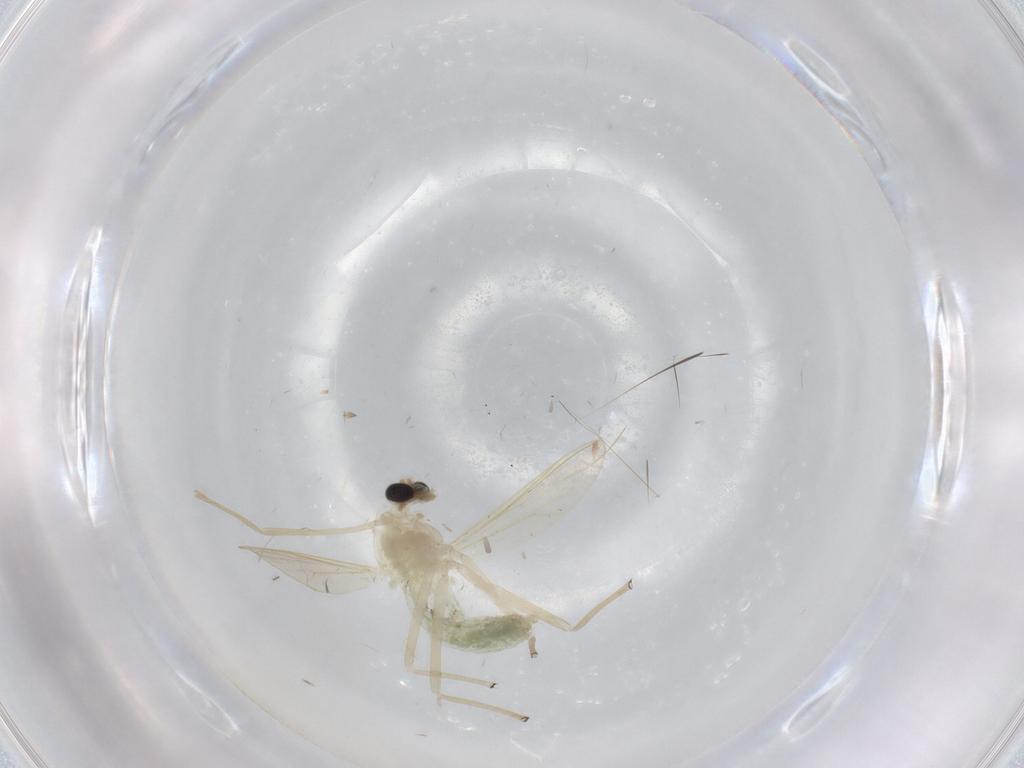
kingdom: Animalia
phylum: Arthropoda
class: Insecta
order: Diptera
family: Chironomidae
